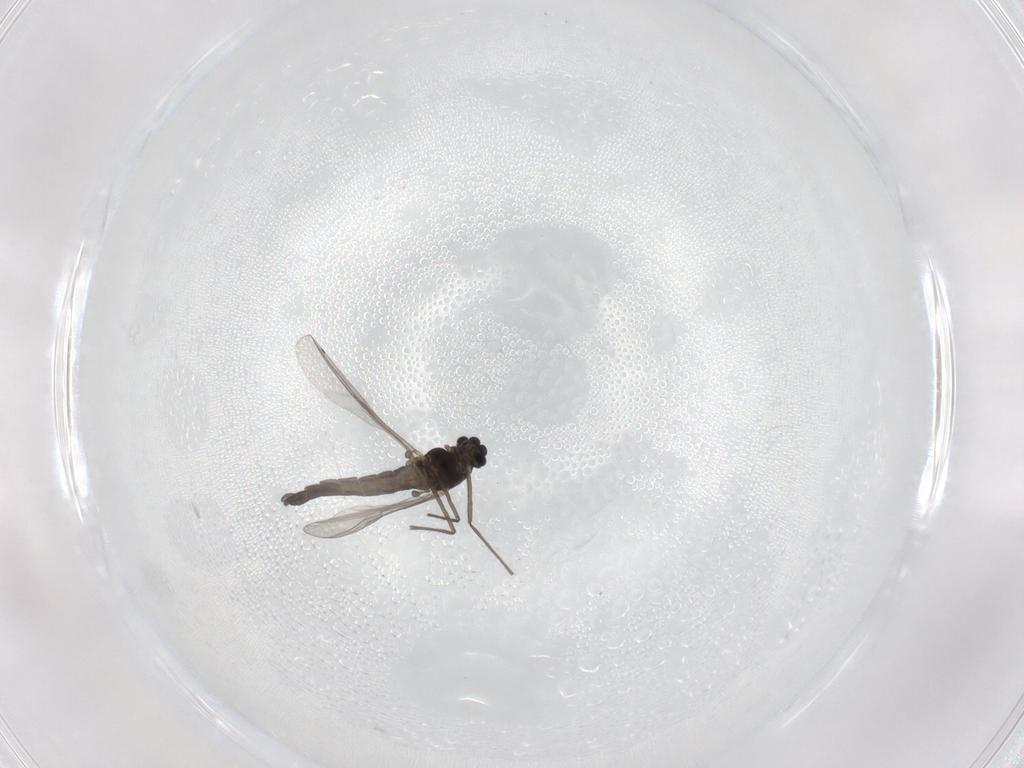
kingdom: Animalia
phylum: Arthropoda
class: Insecta
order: Diptera
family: Chironomidae
